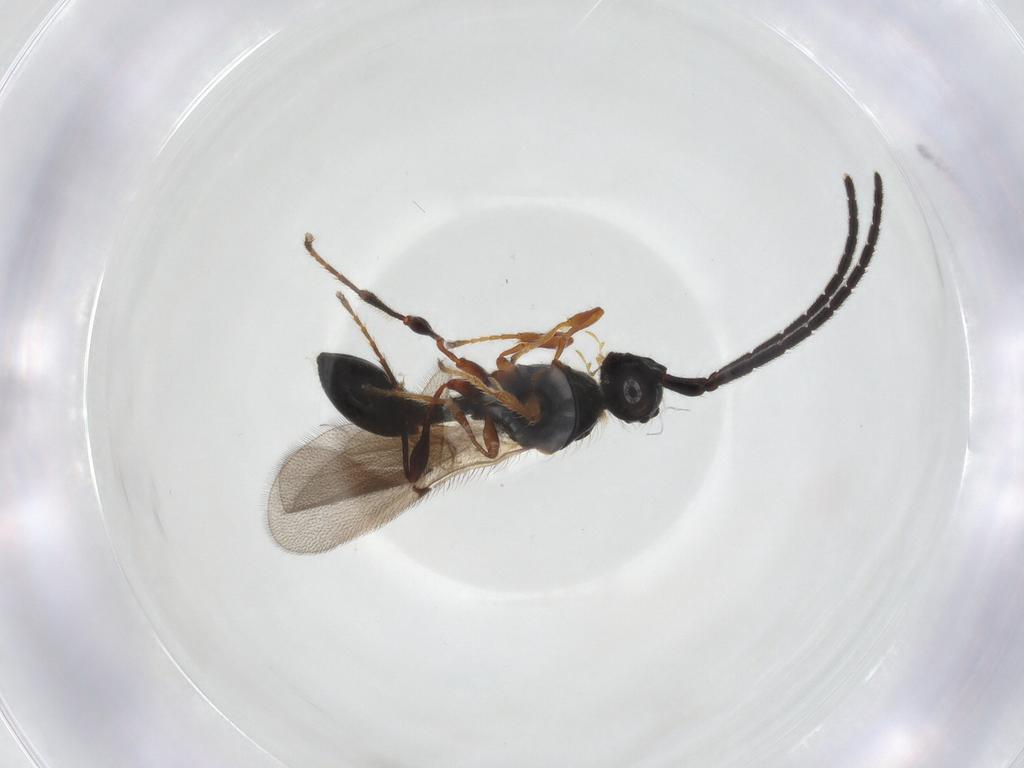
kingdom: Animalia
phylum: Arthropoda
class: Insecta
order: Hymenoptera
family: Diapriidae
